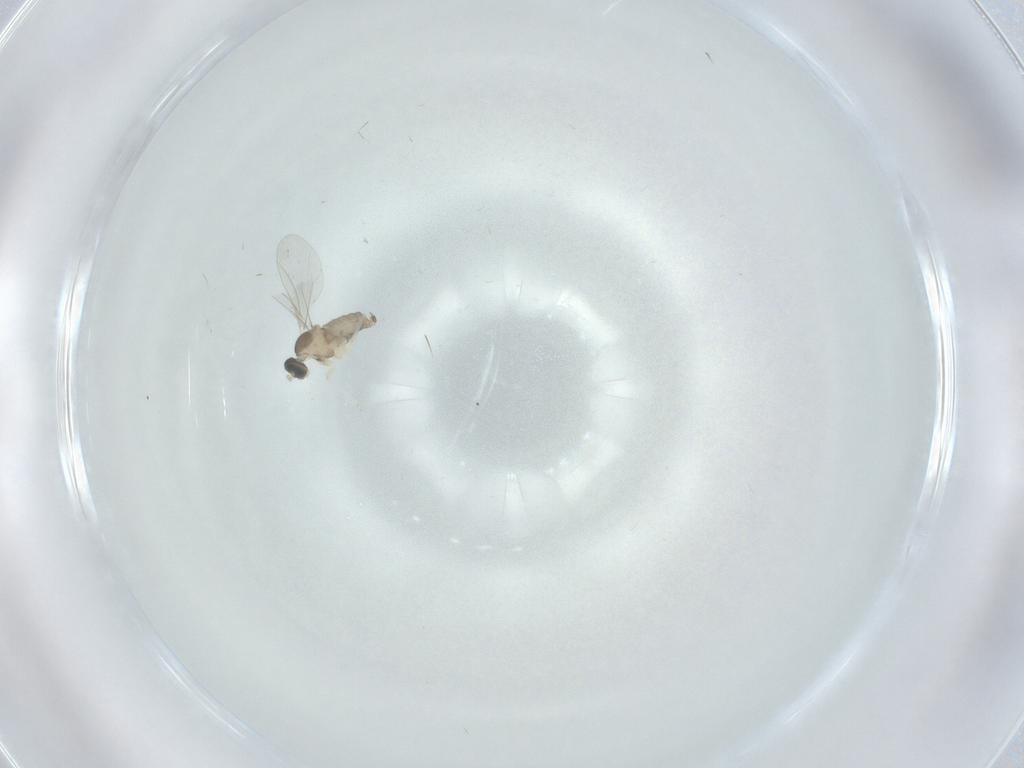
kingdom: Animalia
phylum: Arthropoda
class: Insecta
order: Diptera
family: Cecidomyiidae
